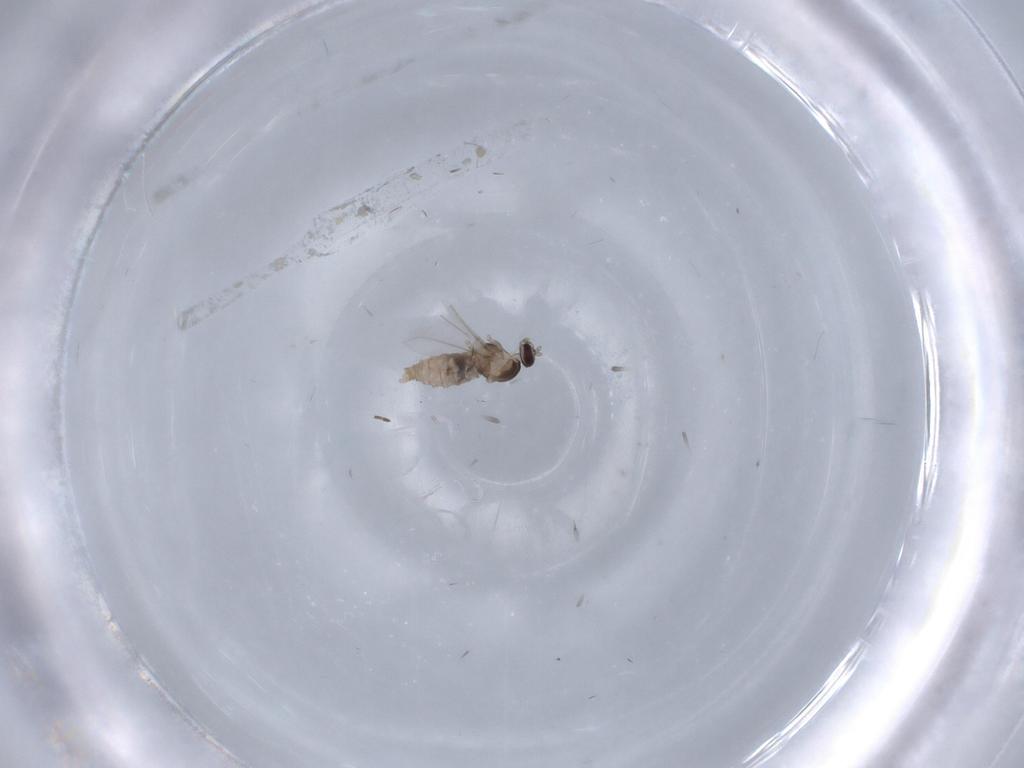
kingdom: Animalia
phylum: Arthropoda
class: Insecta
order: Diptera
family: Cecidomyiidae
